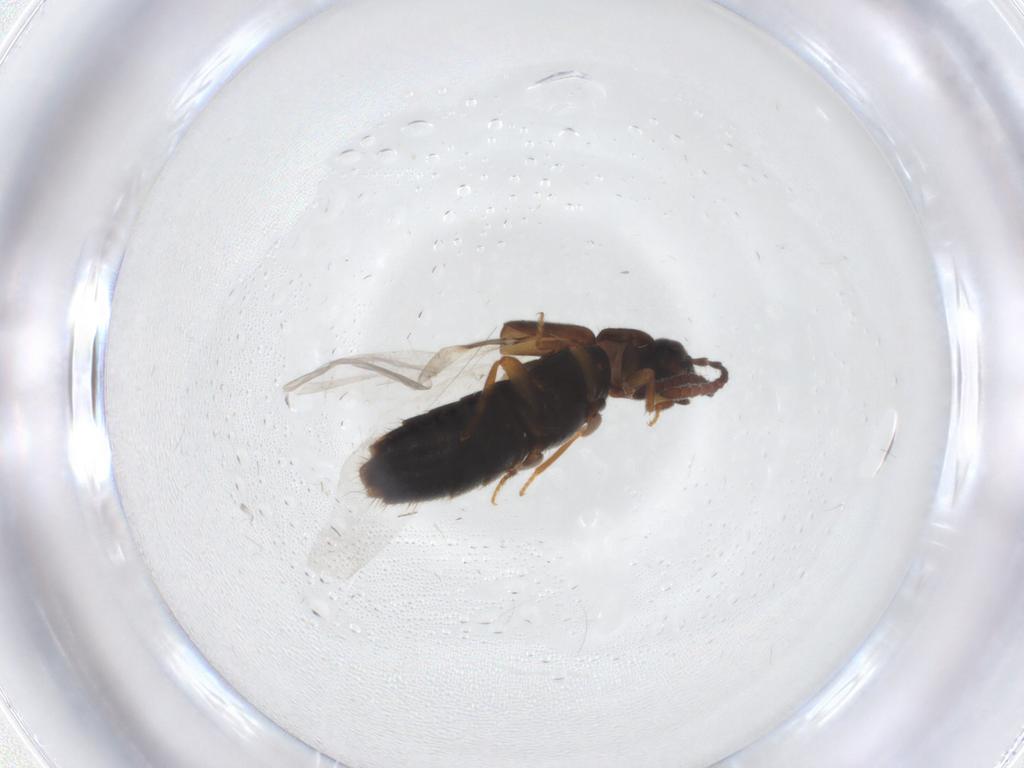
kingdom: Animalia
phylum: Arthropoda
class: Insecta
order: Coleoptera
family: Staphylinidae
